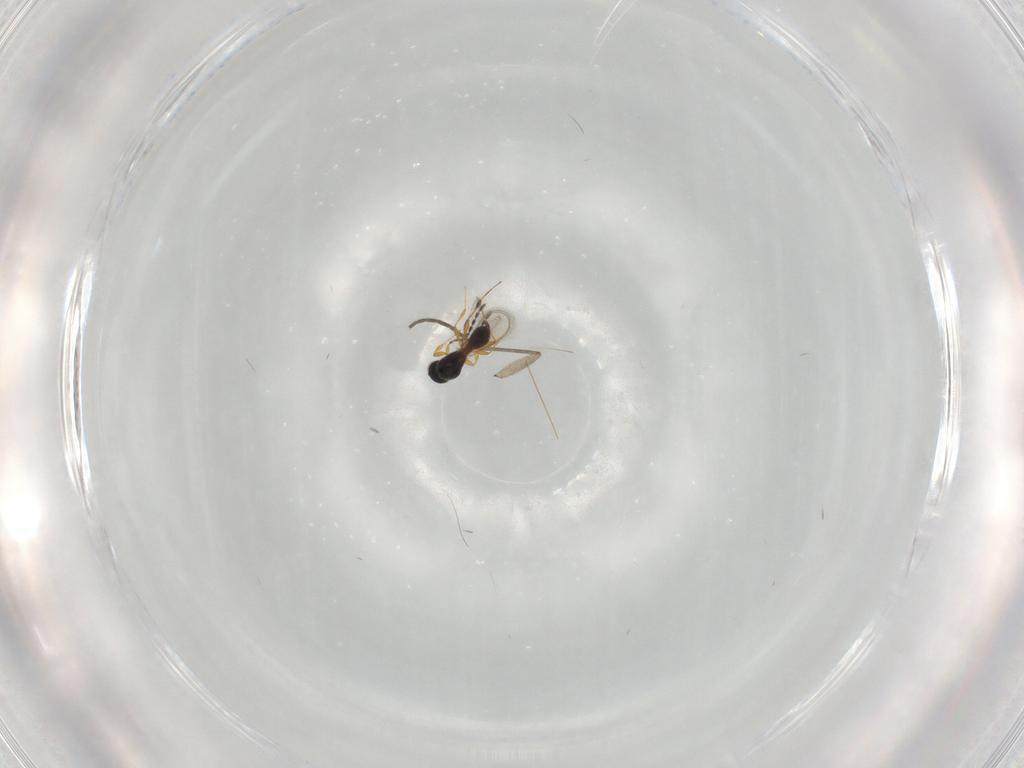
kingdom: Animalia
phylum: Arthropoda
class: Insecta
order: Hymenoptera
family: Platygastridae
